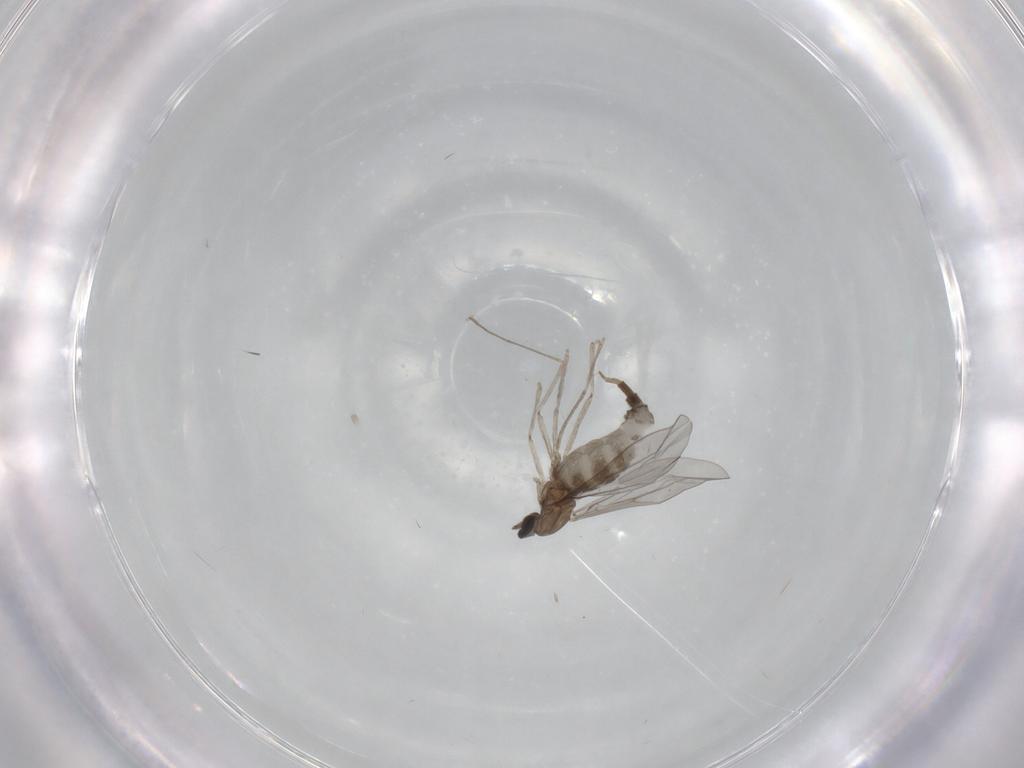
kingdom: Animalia
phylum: Arthropoda
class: Insecta
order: Diptera
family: Cecidomyiidae
